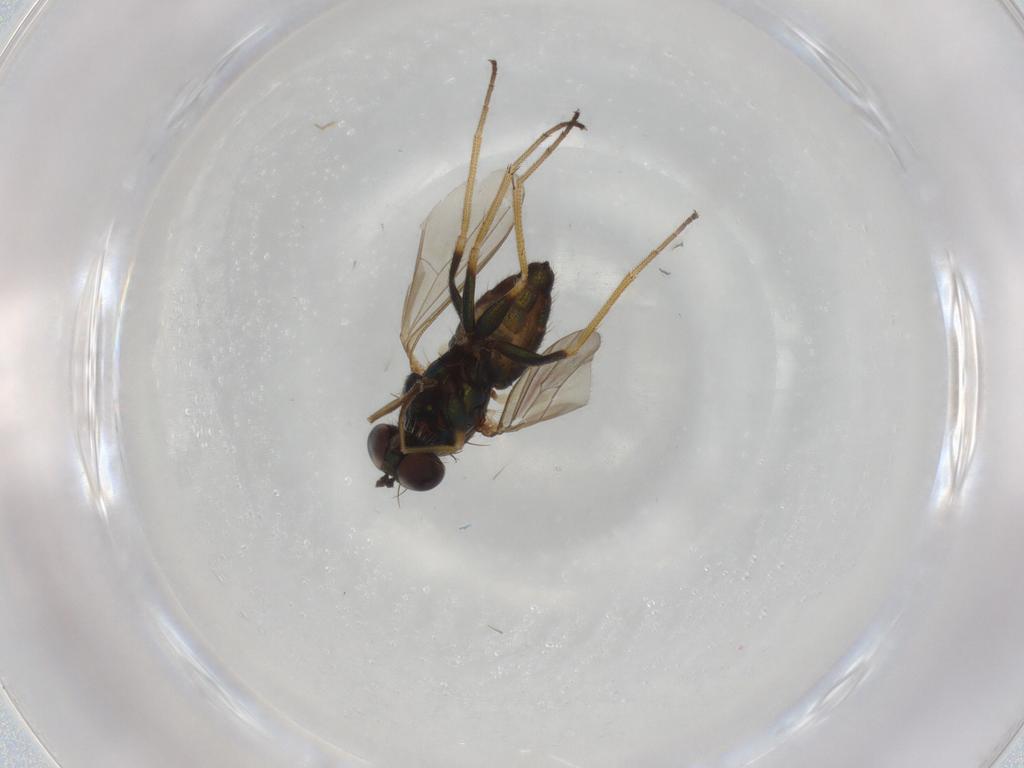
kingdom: Animalia
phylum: Arthropoda
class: Insecta
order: Diptera
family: Dolichopodidae
